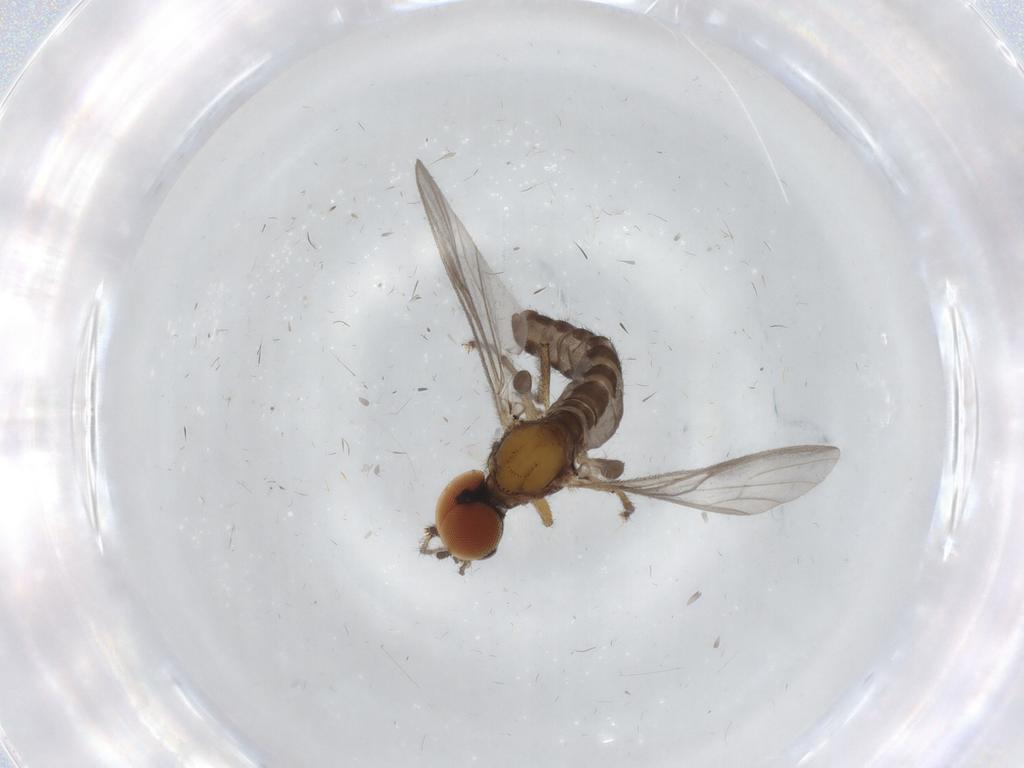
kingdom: Animalia
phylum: Arthropoda
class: Insecta
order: Diptera
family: Bibionidae
